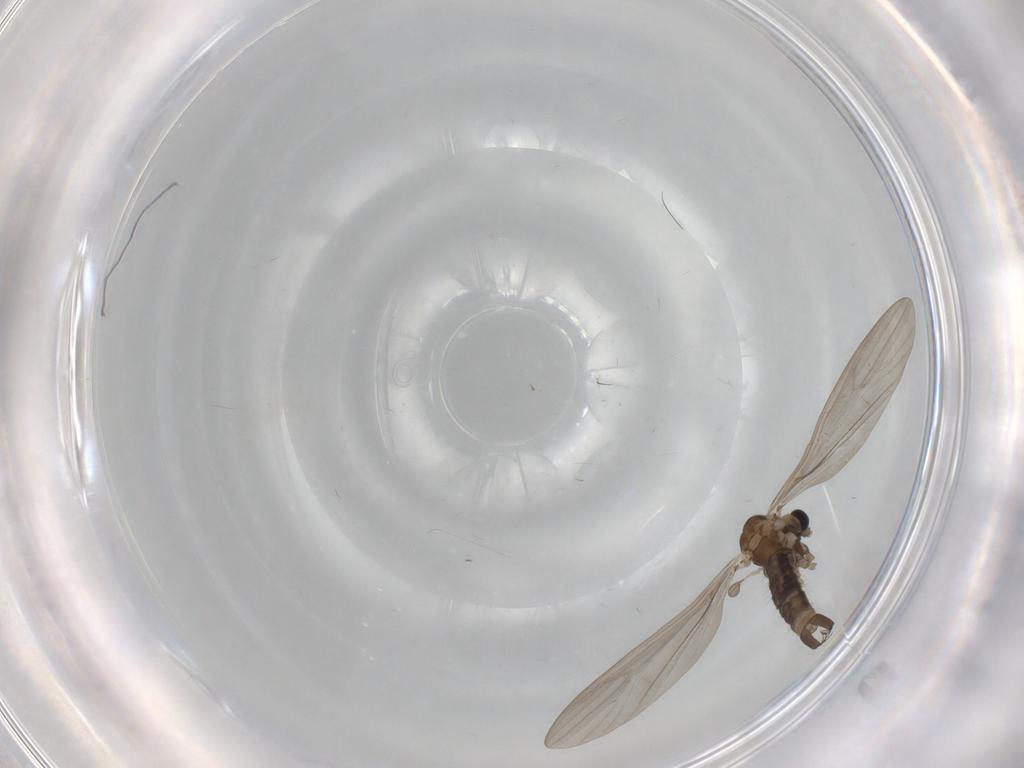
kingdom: Animalia
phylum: Arthropoda
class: Insecta
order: Diptera
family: Limoniidae
